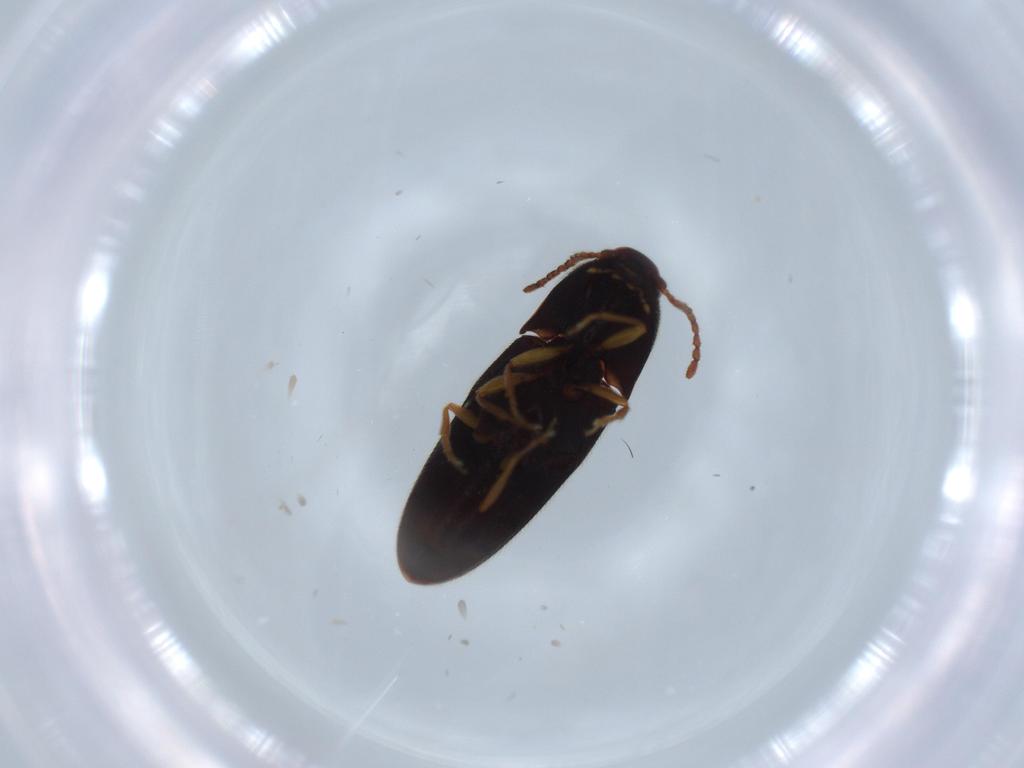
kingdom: Animalia
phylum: Arthropoda
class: Insecta
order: Coleoptera
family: Elateridae
